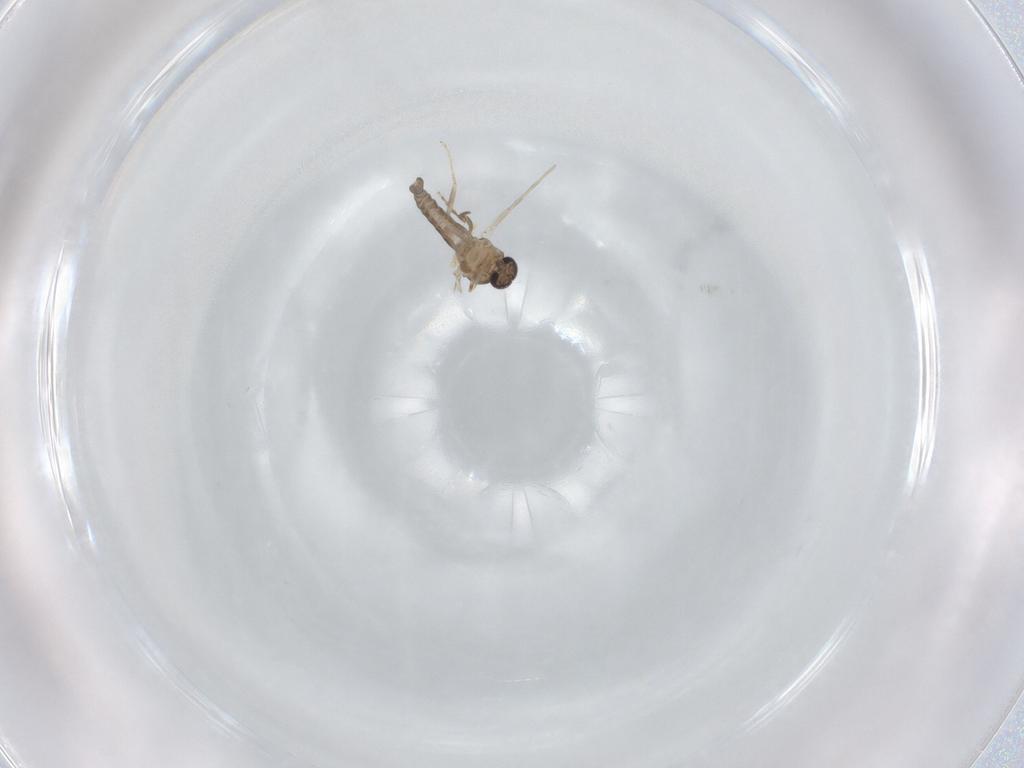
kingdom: Animalia
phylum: Arthropoda
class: Insecta
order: Diptera
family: Ceratopogonidae
